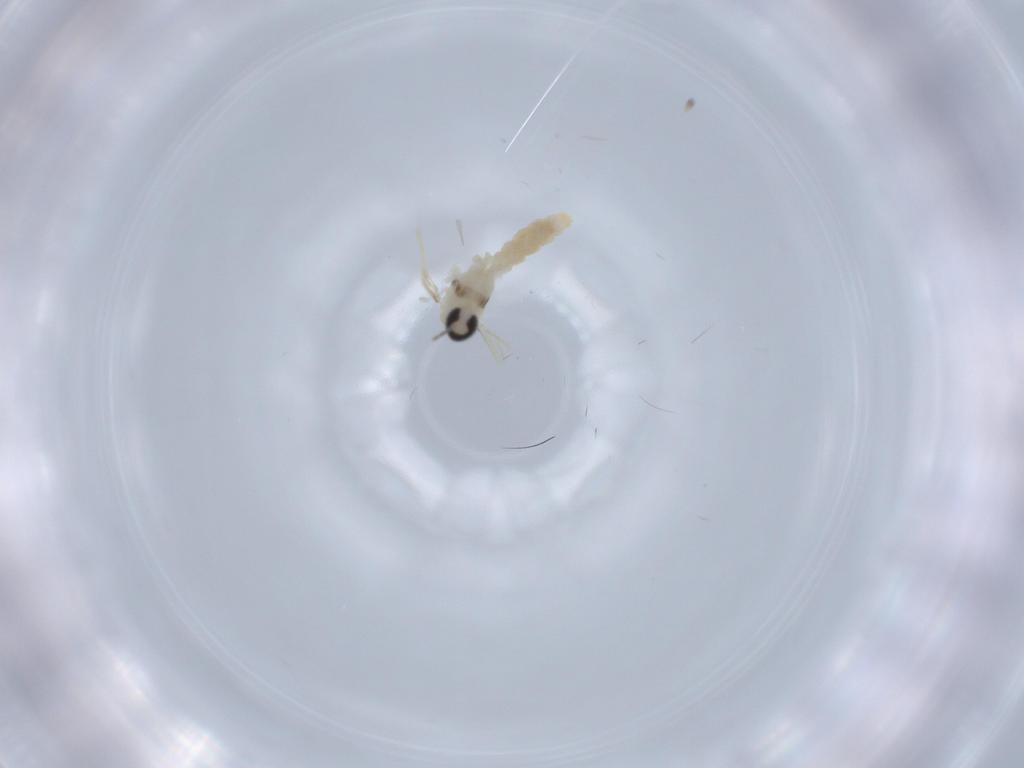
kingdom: Animalia
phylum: Arthropoda
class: Insecta
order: Diptera
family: Cecidomyiidae
